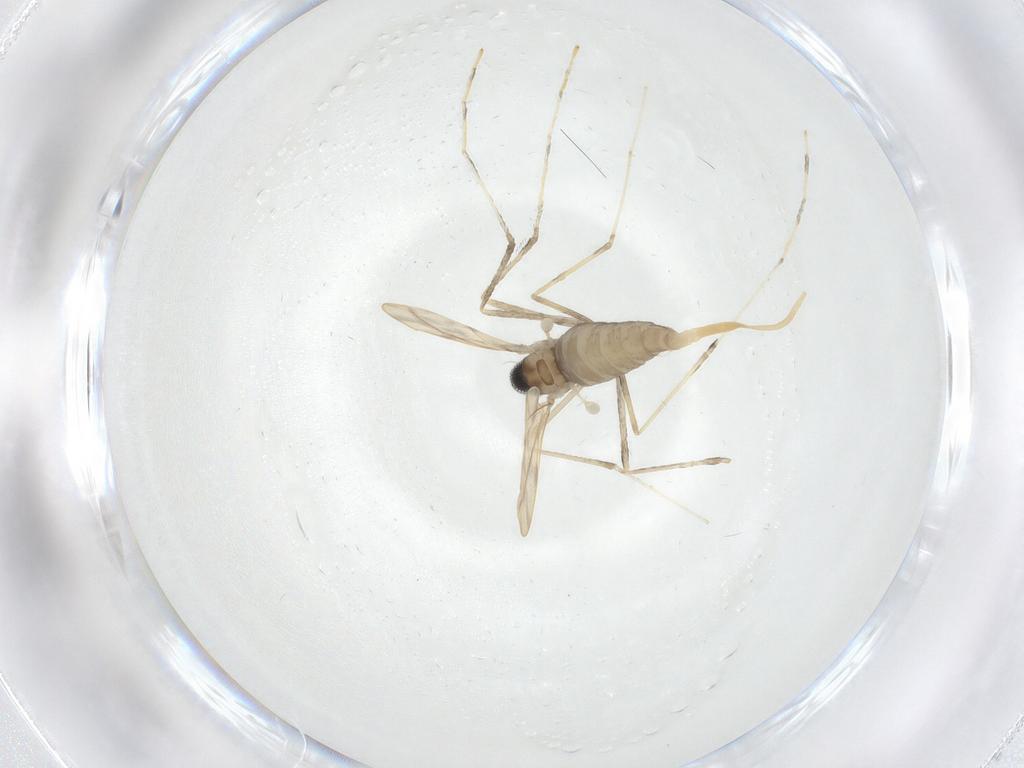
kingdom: Animalia
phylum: Arthropoda
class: Insecta
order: Diptera
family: Cecidomyiidae
